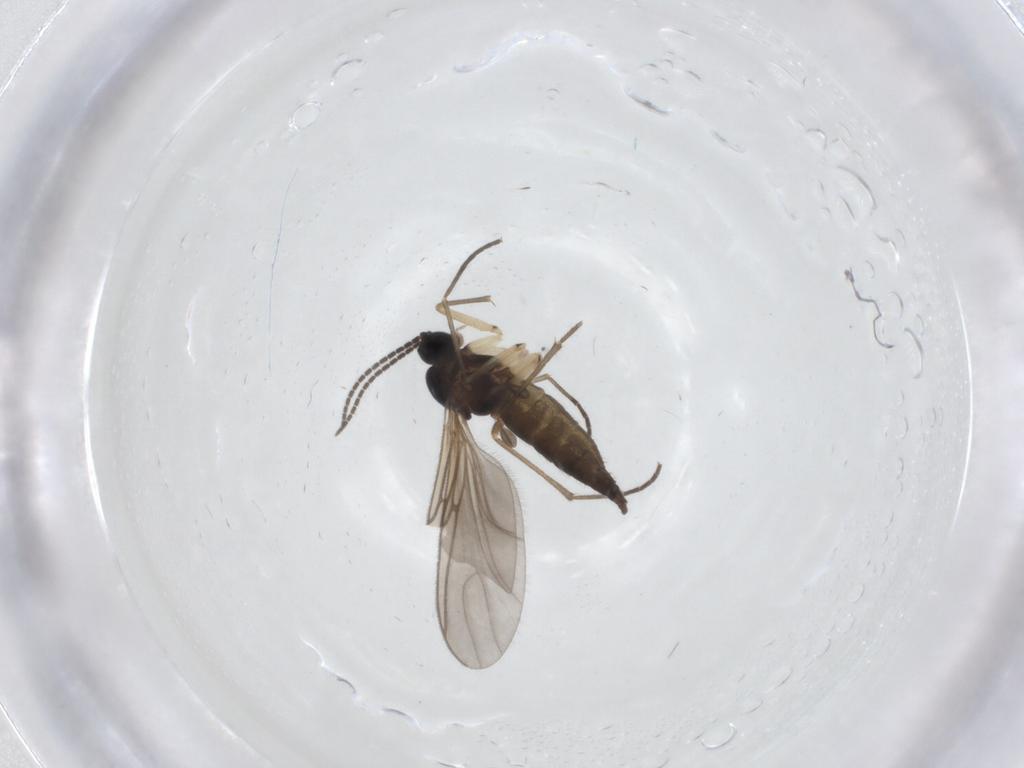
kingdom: Animalia
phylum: Arthropoda
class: Insecta
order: Diptera
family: Sciaridae
